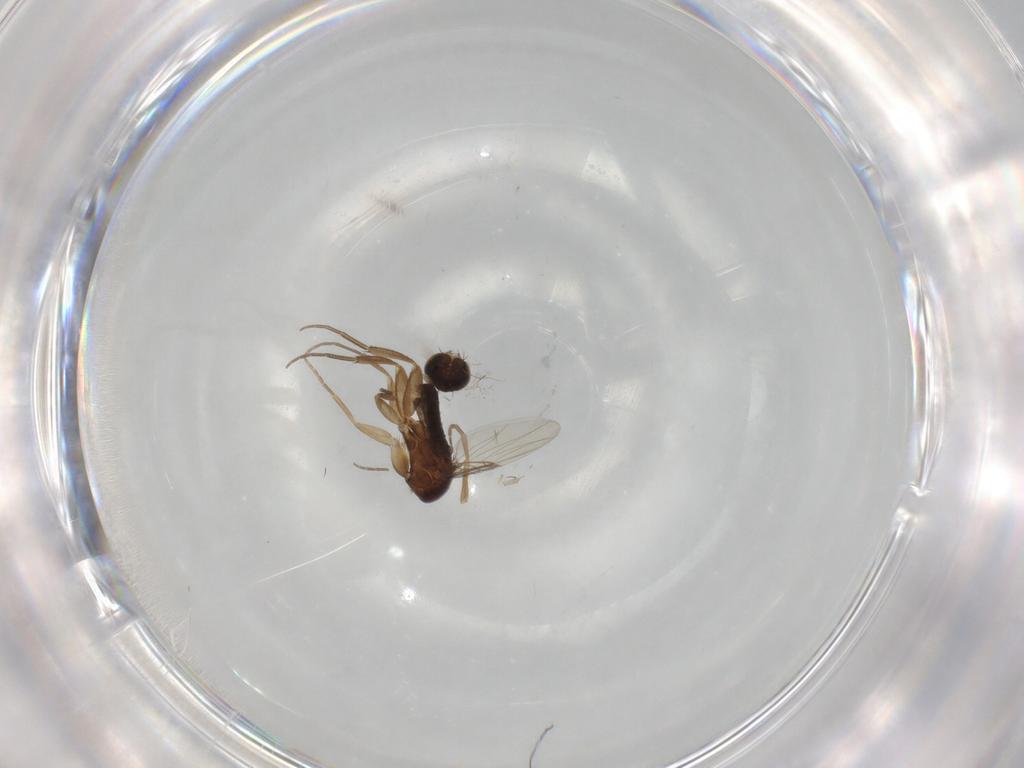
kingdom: Animalia
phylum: Arthropoda
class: Insecta
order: Diptera
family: Phoridae
